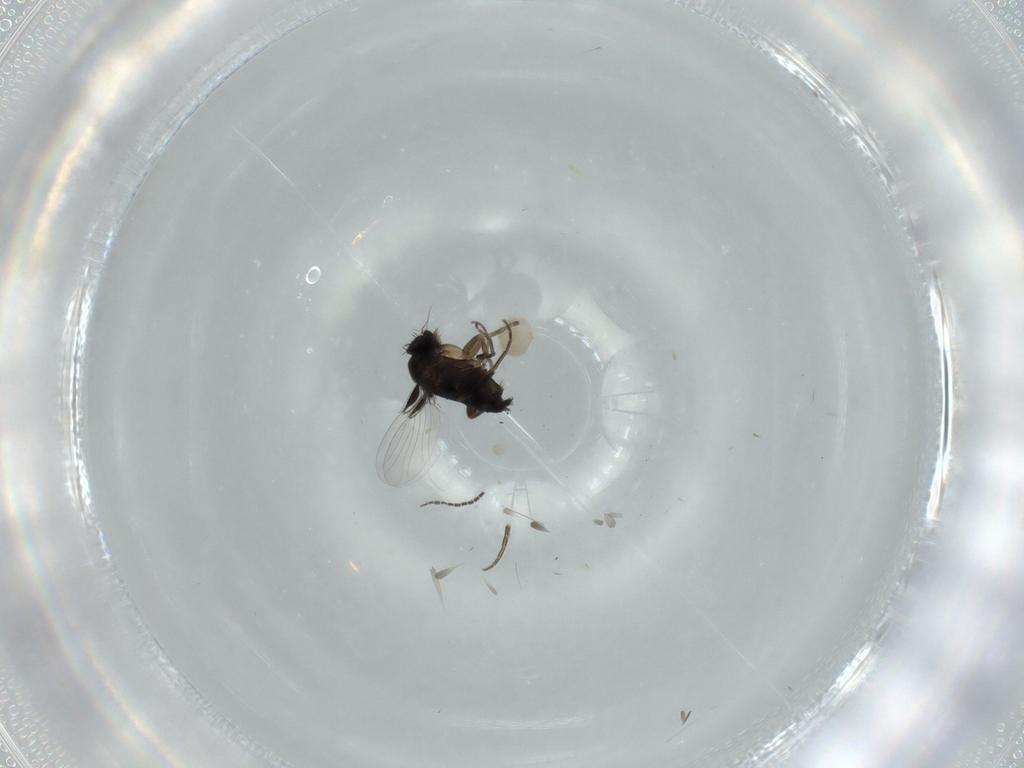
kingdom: Animalia
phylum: Arthropoda
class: Insecta
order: Diptera
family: Phoridae
